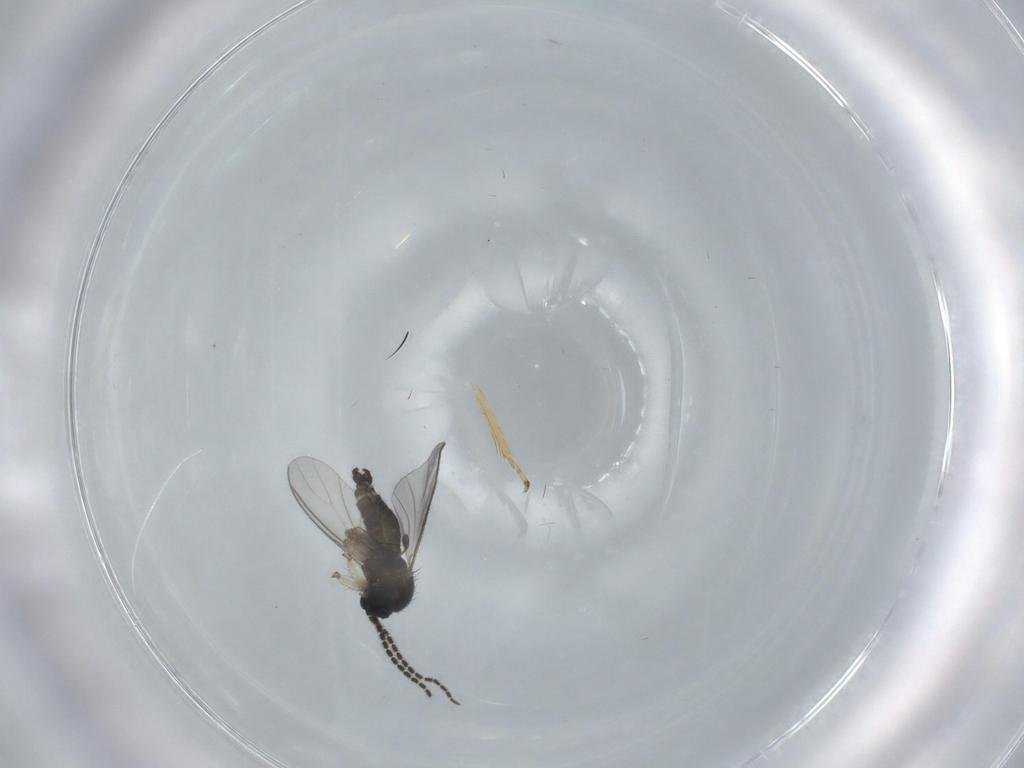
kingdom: Animalia
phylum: Arthropoda
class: Insecta
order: Diptera
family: Sciaridae
